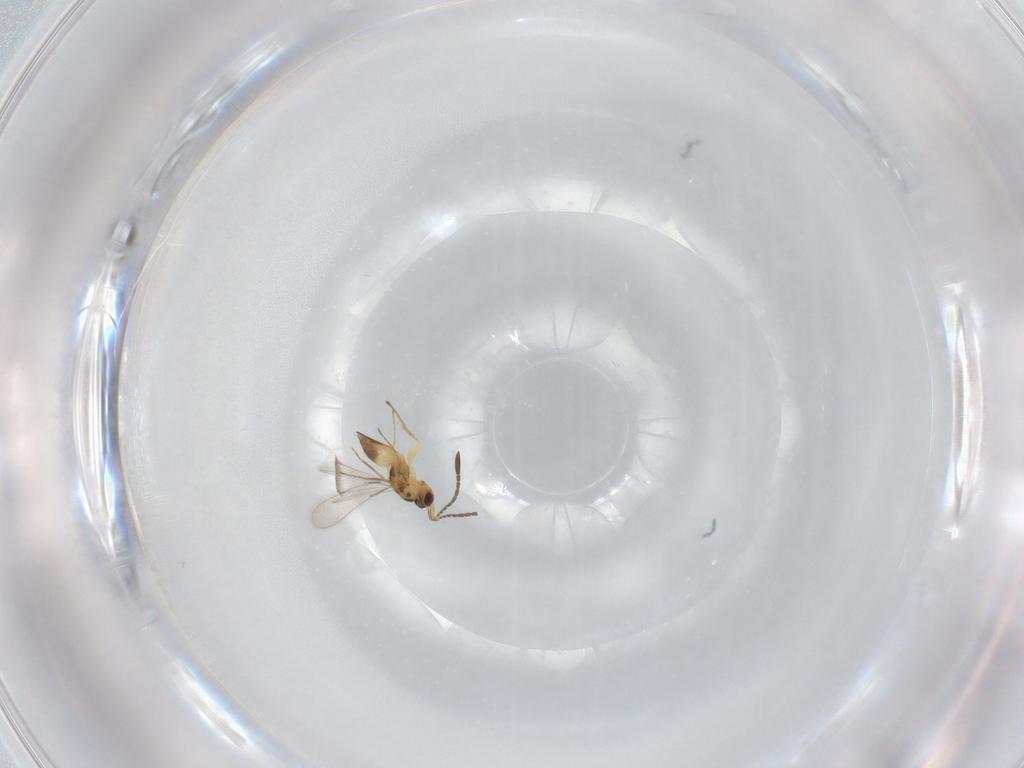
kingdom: Animalia
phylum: Arthropoda
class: Insecta
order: Hymenoptera
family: Mymaridae
